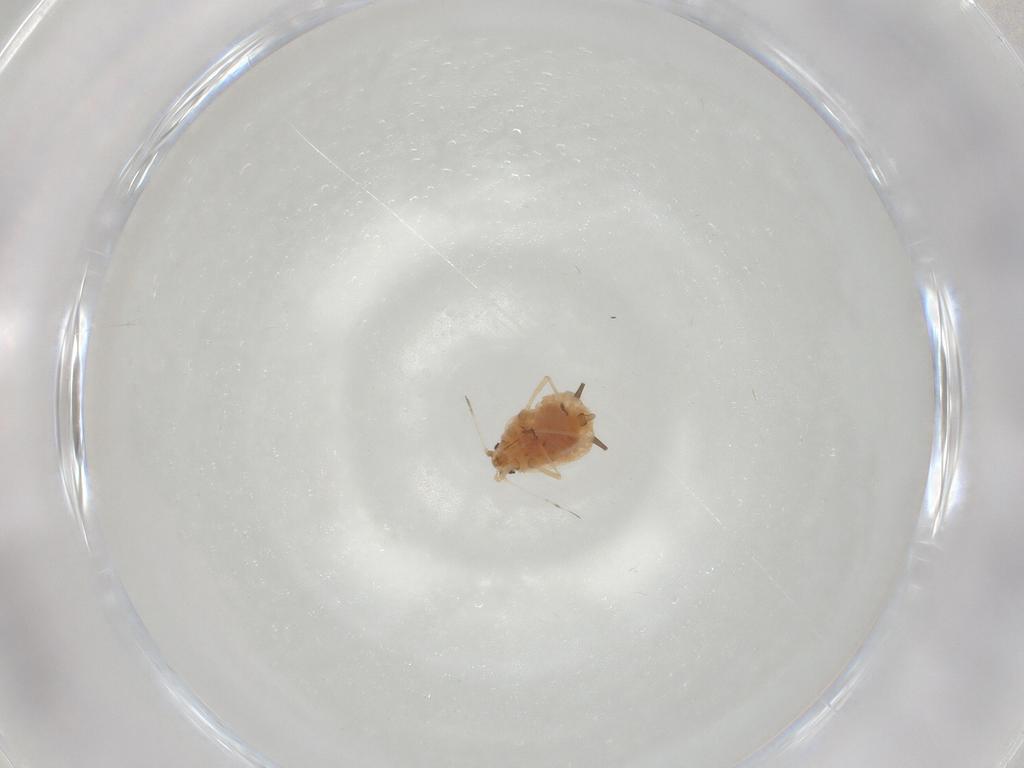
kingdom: Animalia
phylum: Arthropoda
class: Insecta
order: Hemiptera
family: Aphididae
